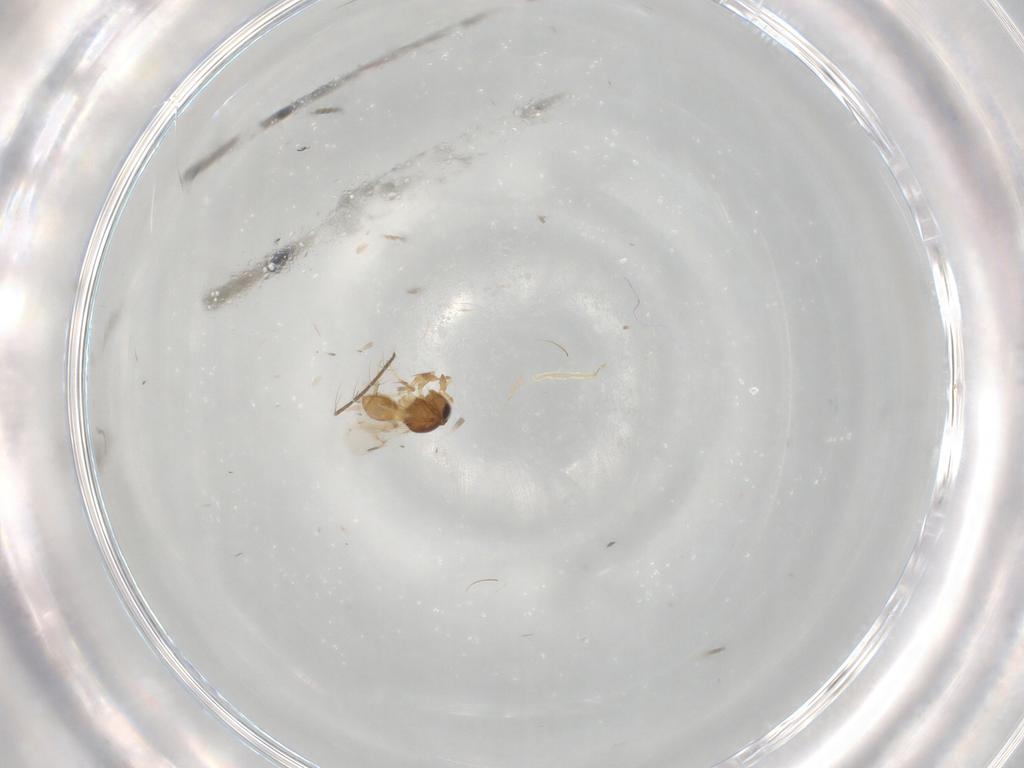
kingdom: Animalia
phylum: Arthropoda
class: Insecta
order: Hymenoptera
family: Scelionidae
